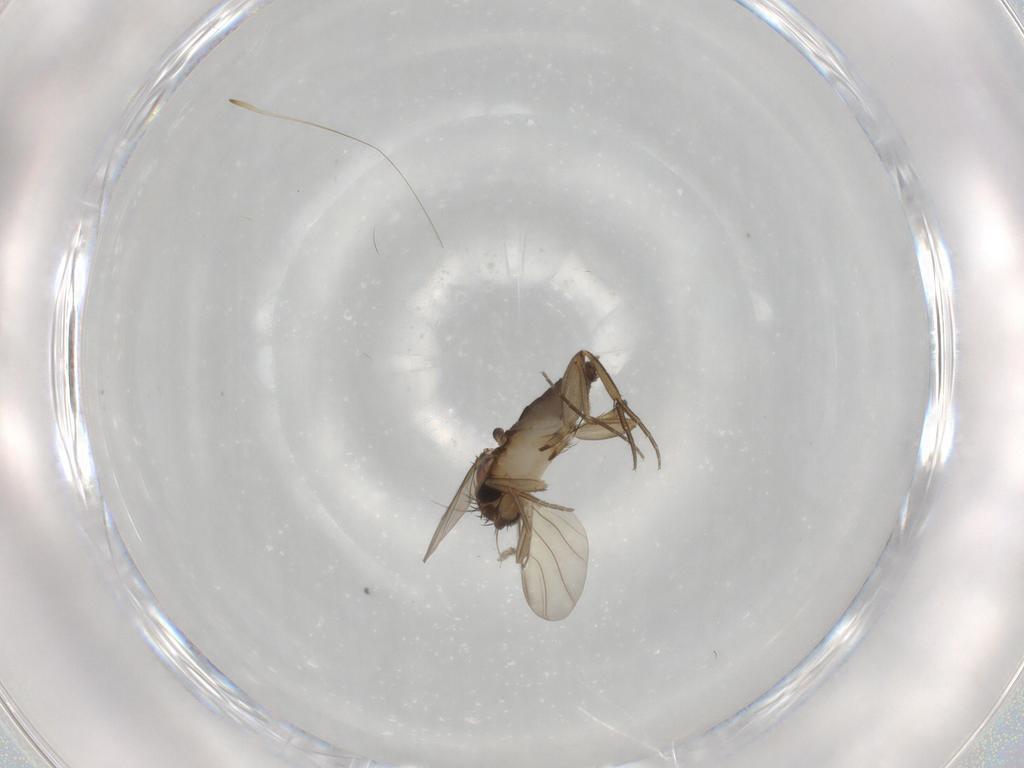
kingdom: Animalia
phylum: Arthropoda
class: Insecta
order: Diptera
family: Phoridae
